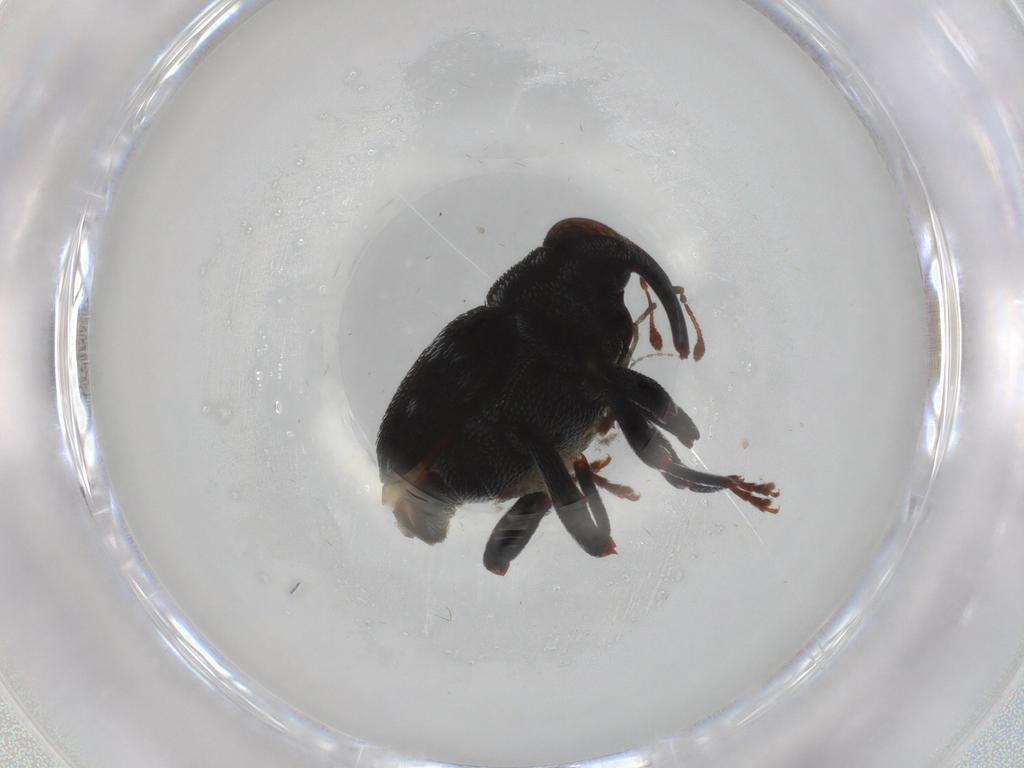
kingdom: Animalia
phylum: Arthropoda
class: Insecta
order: Coleoptera
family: Curculionidae
